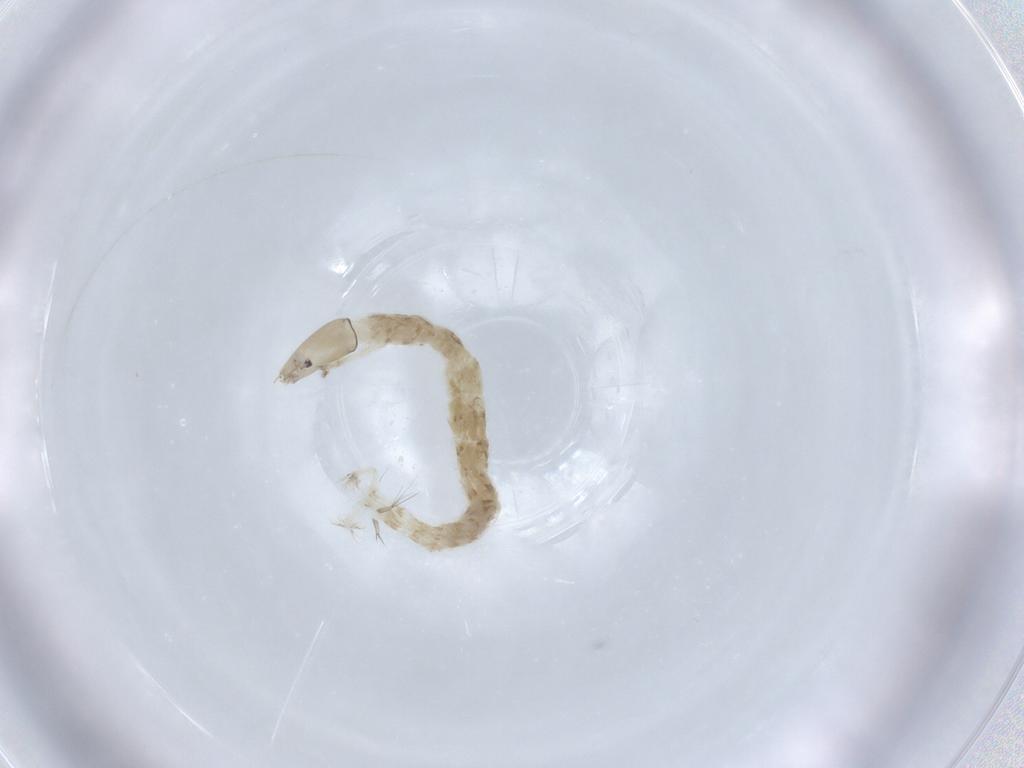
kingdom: Animalia
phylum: Arthropoda
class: Insecta
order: Diptera
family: Chironomidae
